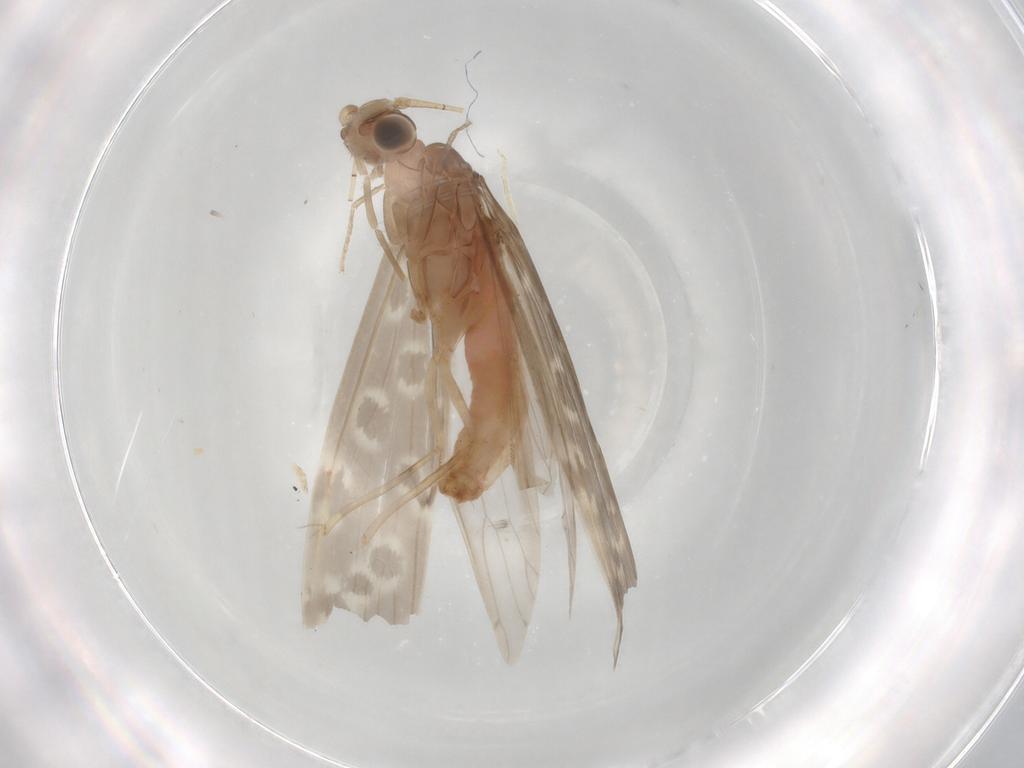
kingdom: Animalia
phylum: Arthropoda
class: Insecta
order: Trichoptera
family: Leptoceridae
